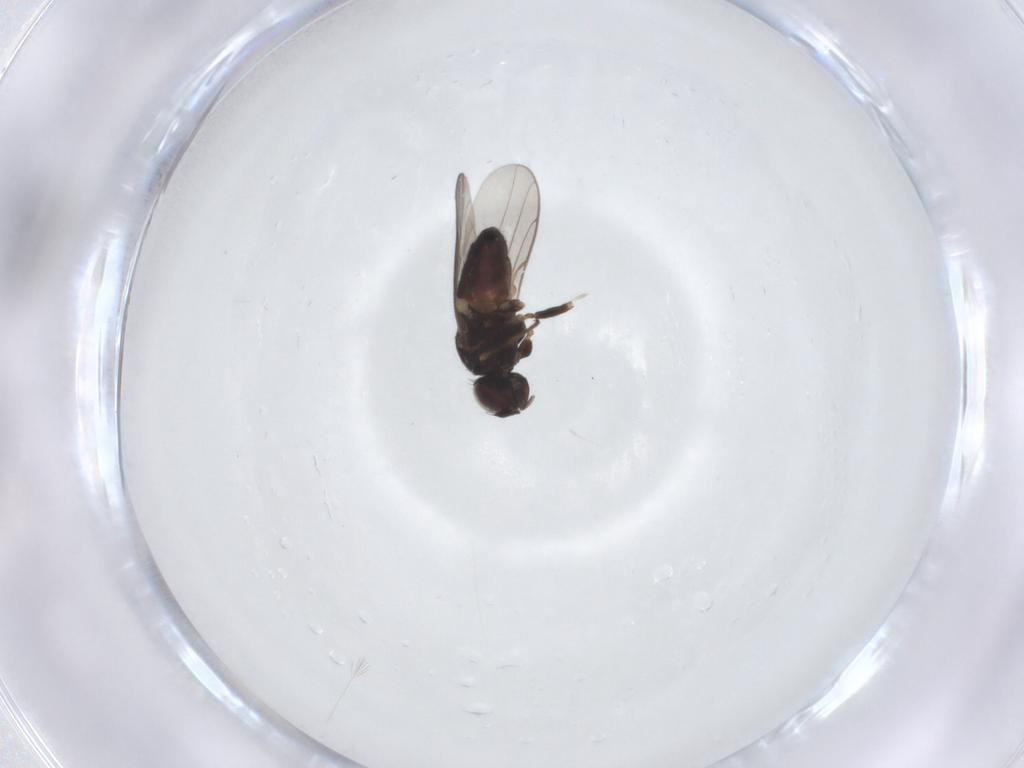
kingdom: Animalia
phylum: Arthropoda
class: Insecta
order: Diptera
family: Chloropidae
